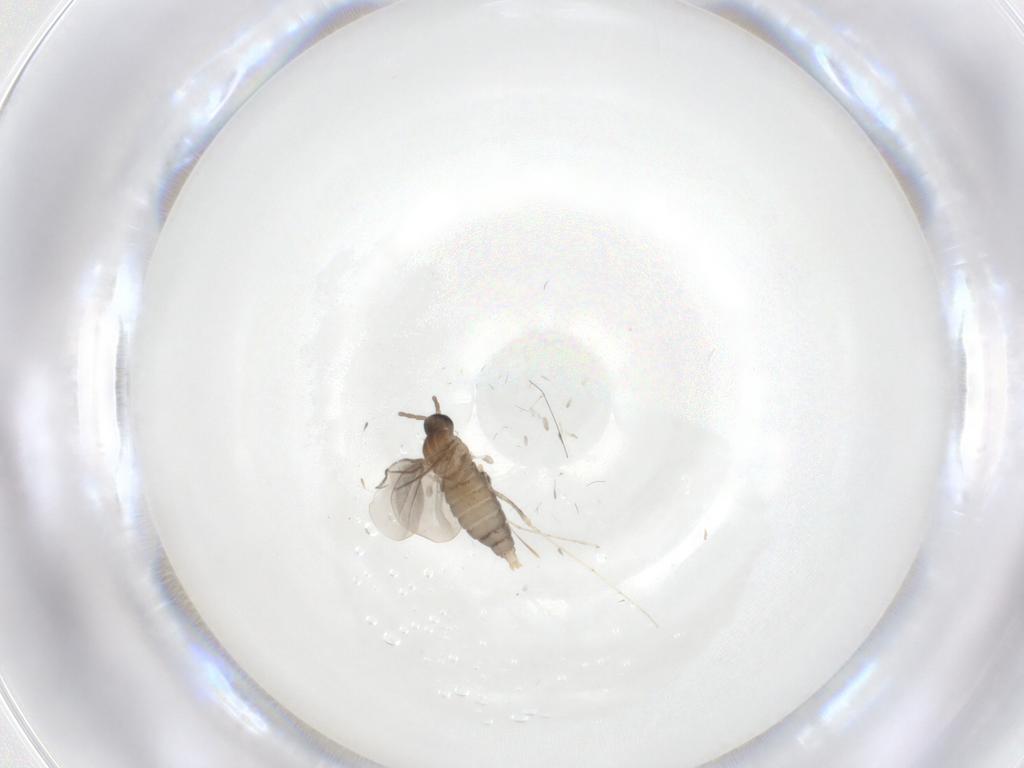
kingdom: Animalia
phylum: Arthropoda
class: Insecta
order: Diptera
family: Cecidomyiidae
